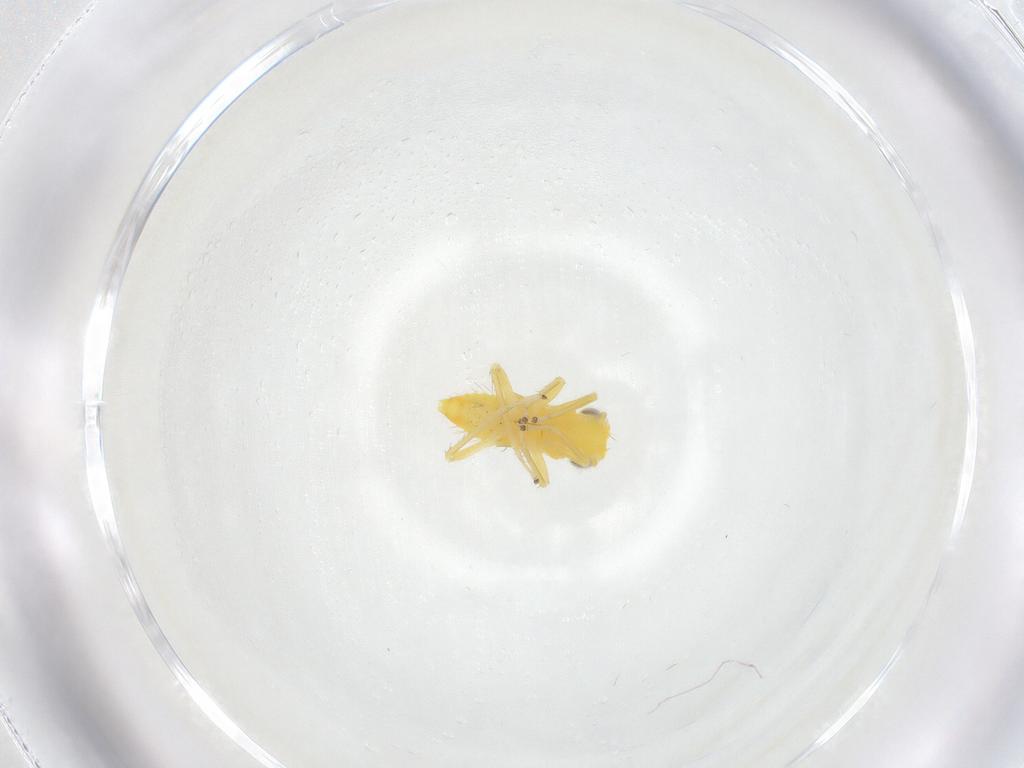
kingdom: Animalia
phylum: Arthropoda
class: Insecta
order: Hemiptera
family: Cicadellidae
